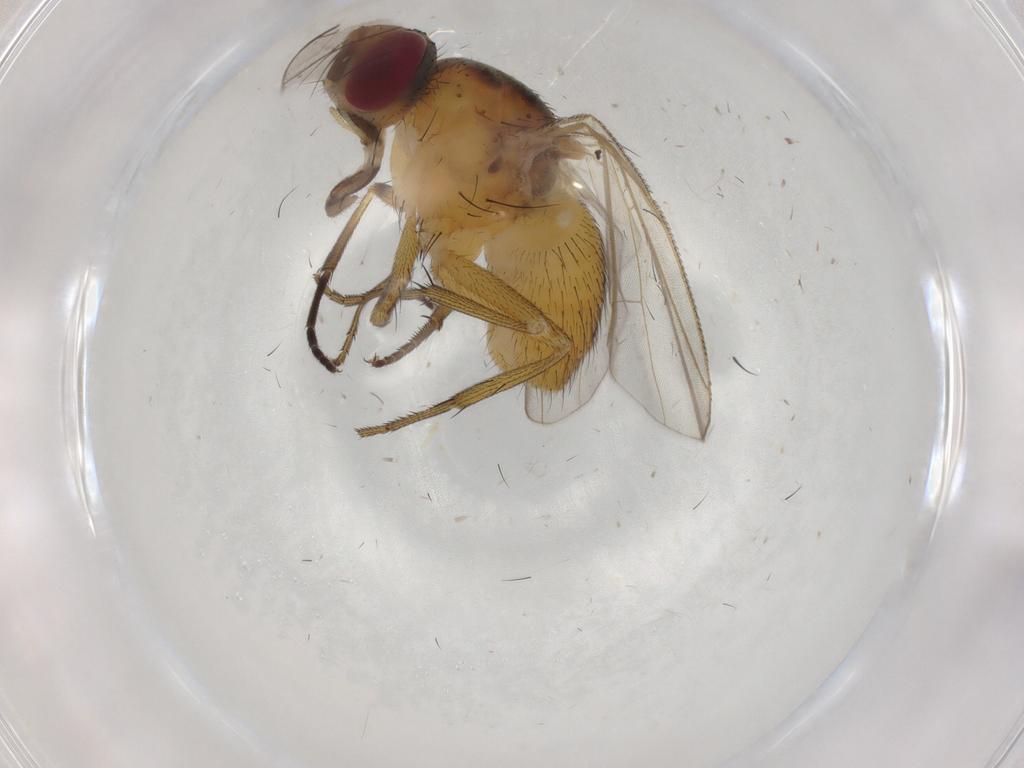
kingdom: Animalia
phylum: Arthropoda
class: Insecta
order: Diptera
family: Muscidae
